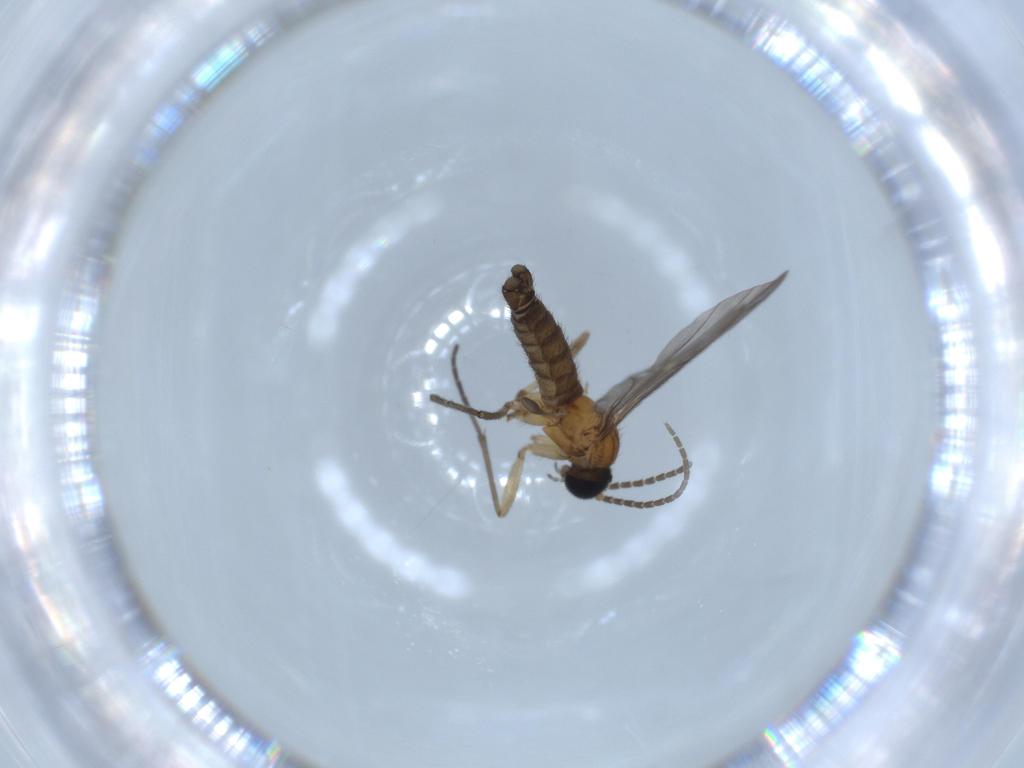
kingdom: Animalia
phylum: Arthropoda
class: Insecta
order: Diptera
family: Sciaridae
